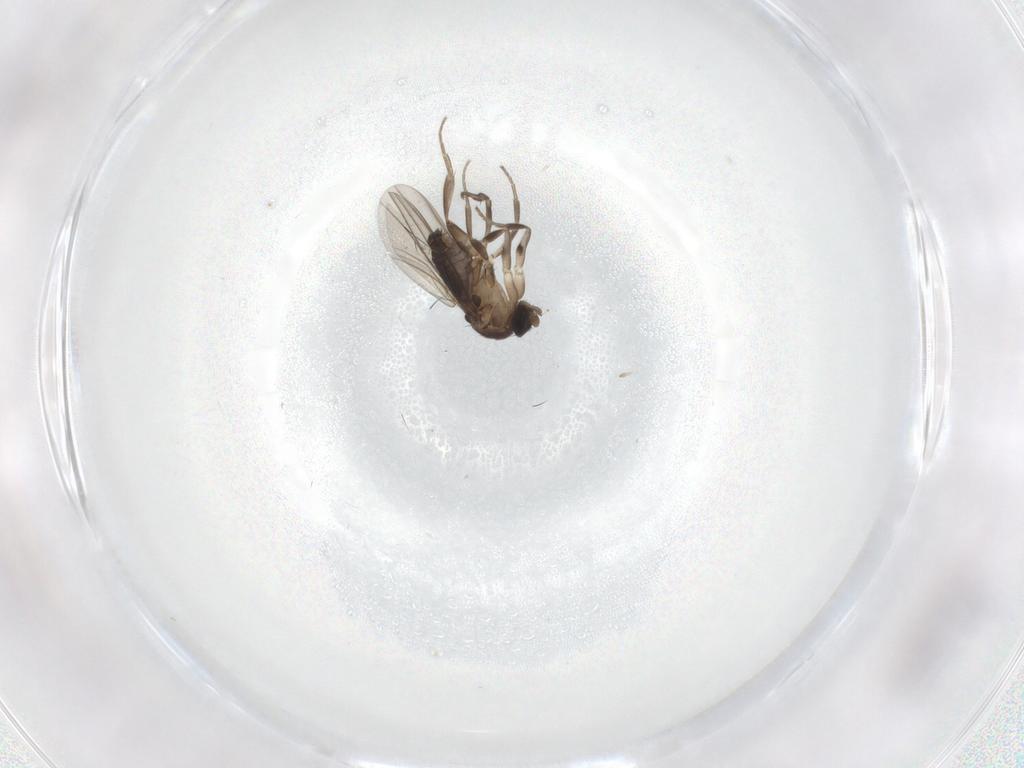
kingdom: Animalia
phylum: Arthropoda
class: Insecta
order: Diptera
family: Phoridae
